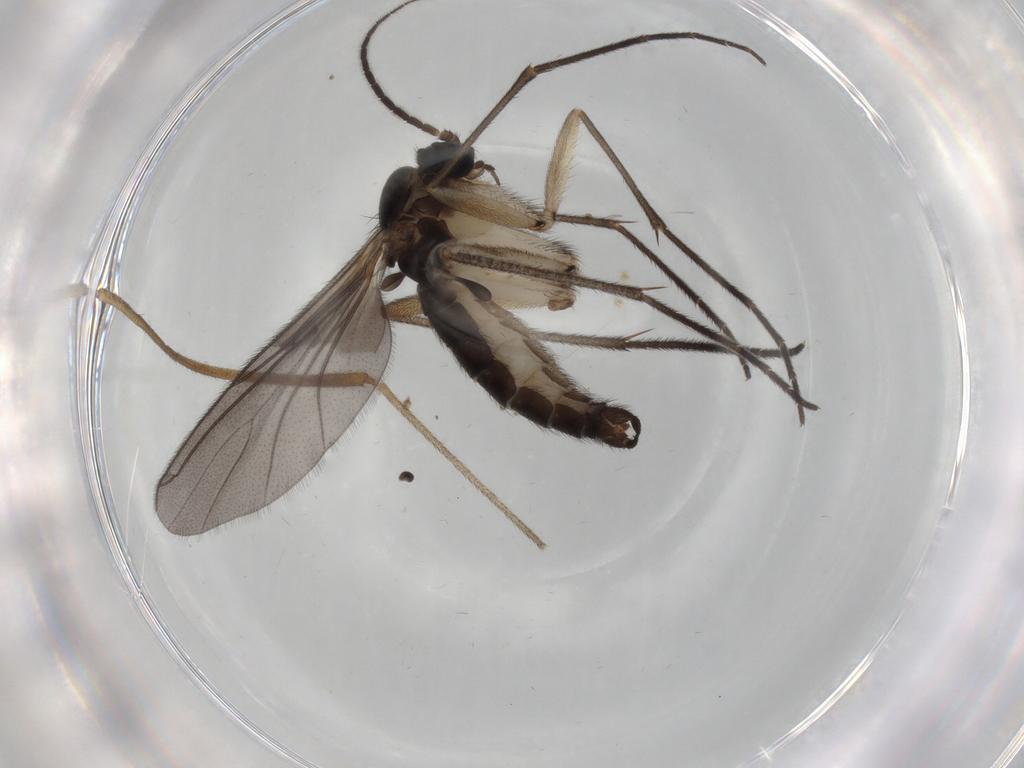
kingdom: Animalia
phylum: Arthropoda
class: Insecta
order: Diptera
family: Sciaridae
